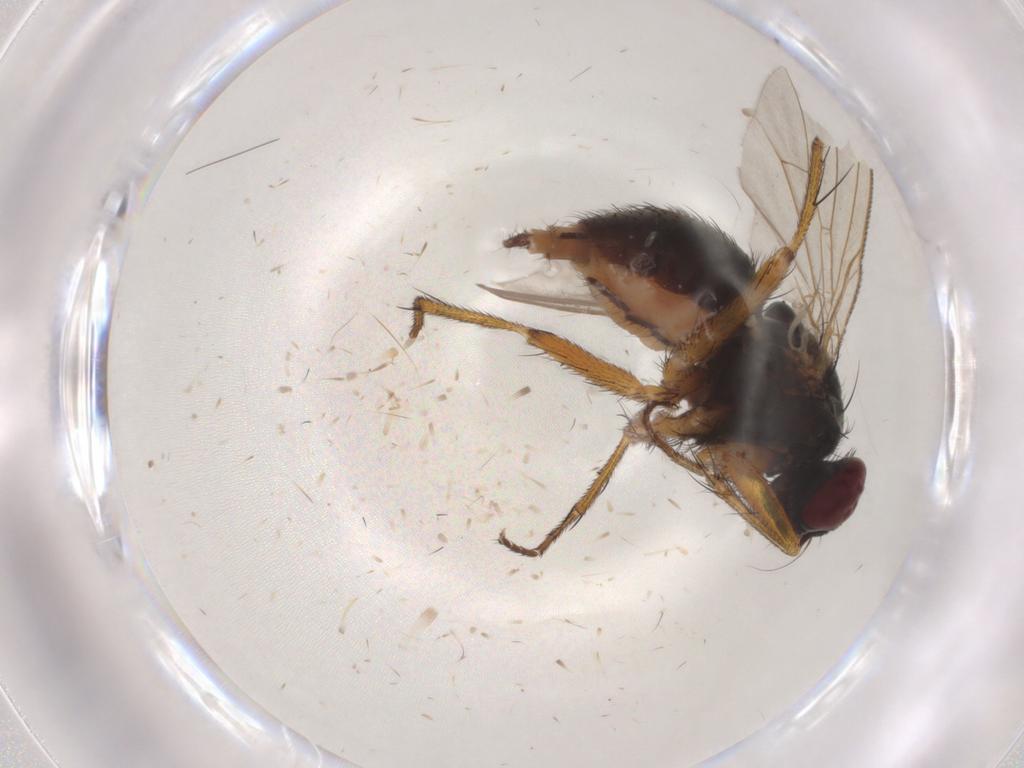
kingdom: Animalia
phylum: Arthropoda
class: Insecta
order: Diptera
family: Muscidae
